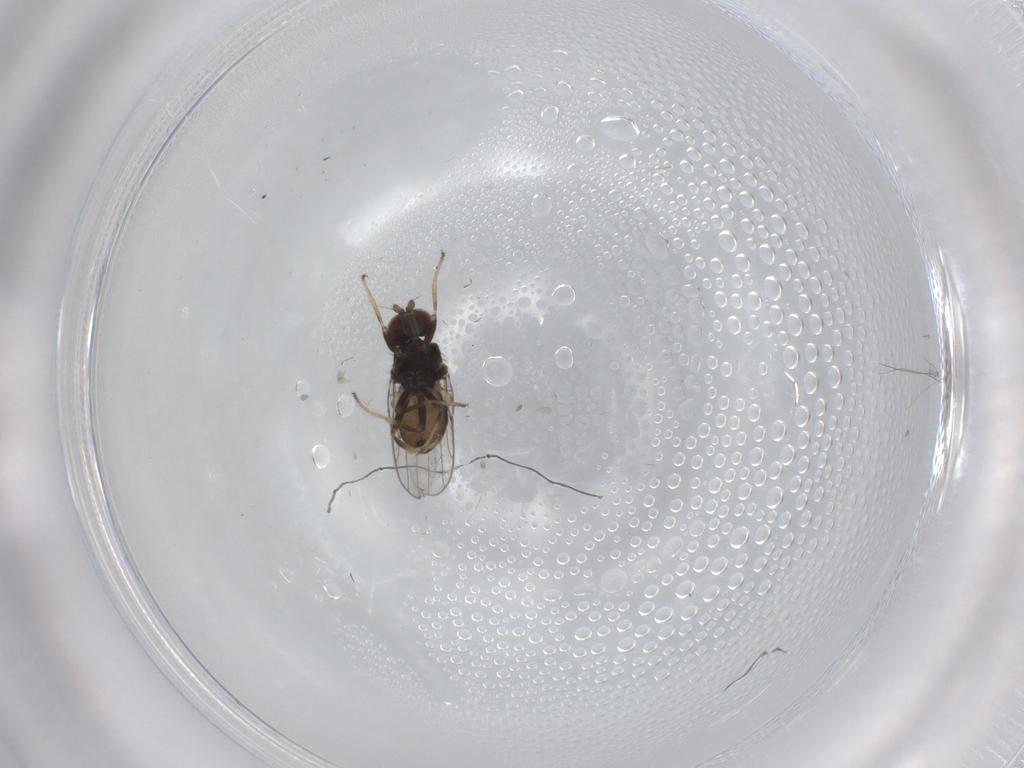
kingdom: Animalia
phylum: Arthropoda
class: Insecta
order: Diptera
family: Chloropidae
